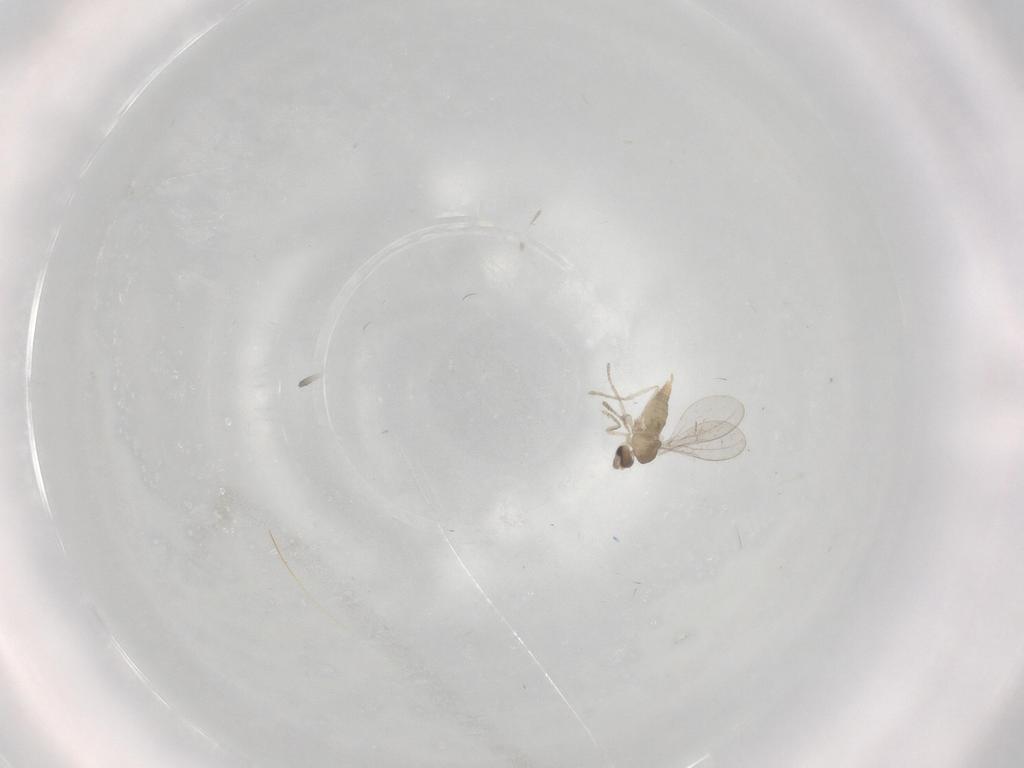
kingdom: Animalia
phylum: Arthropoda
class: Insecta
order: Diptera
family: Cecidomyiidae
